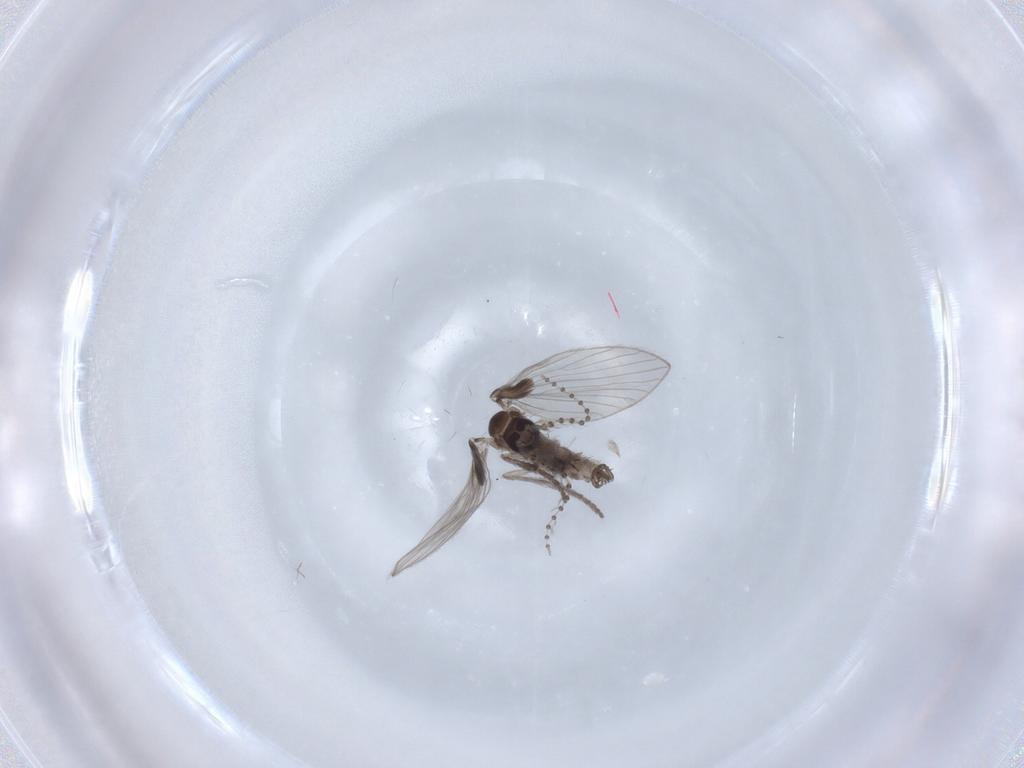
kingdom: Animalia
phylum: Arthropoda
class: Insecta
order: Diptera
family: Psychodidae
